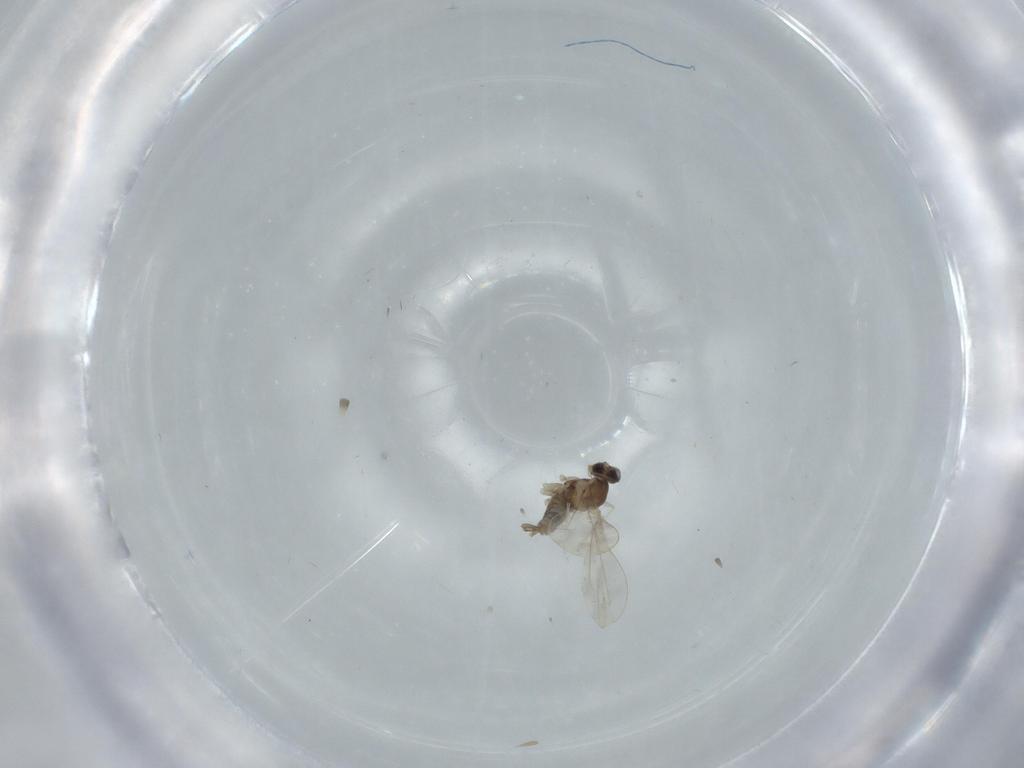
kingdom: Animalia
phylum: Arthropoda
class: Insecta
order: Diptera
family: Cecidomyiidae
